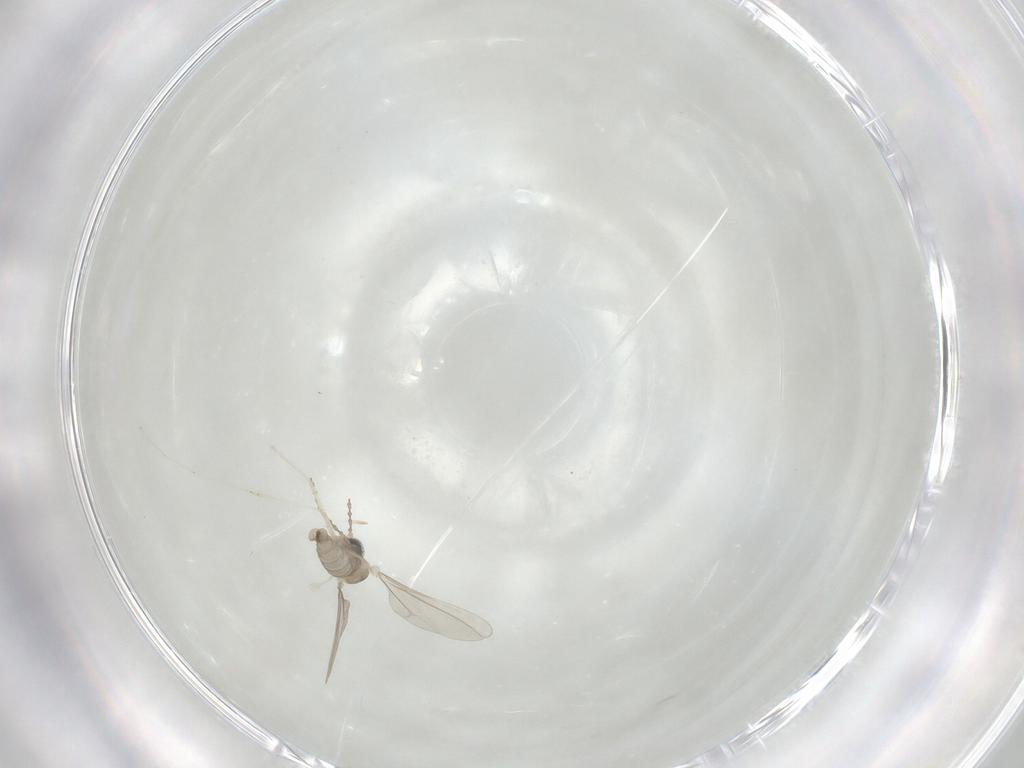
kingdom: Animalia
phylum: Arthropoda
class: Insecta
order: Diptera
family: Cecidomyiidae
